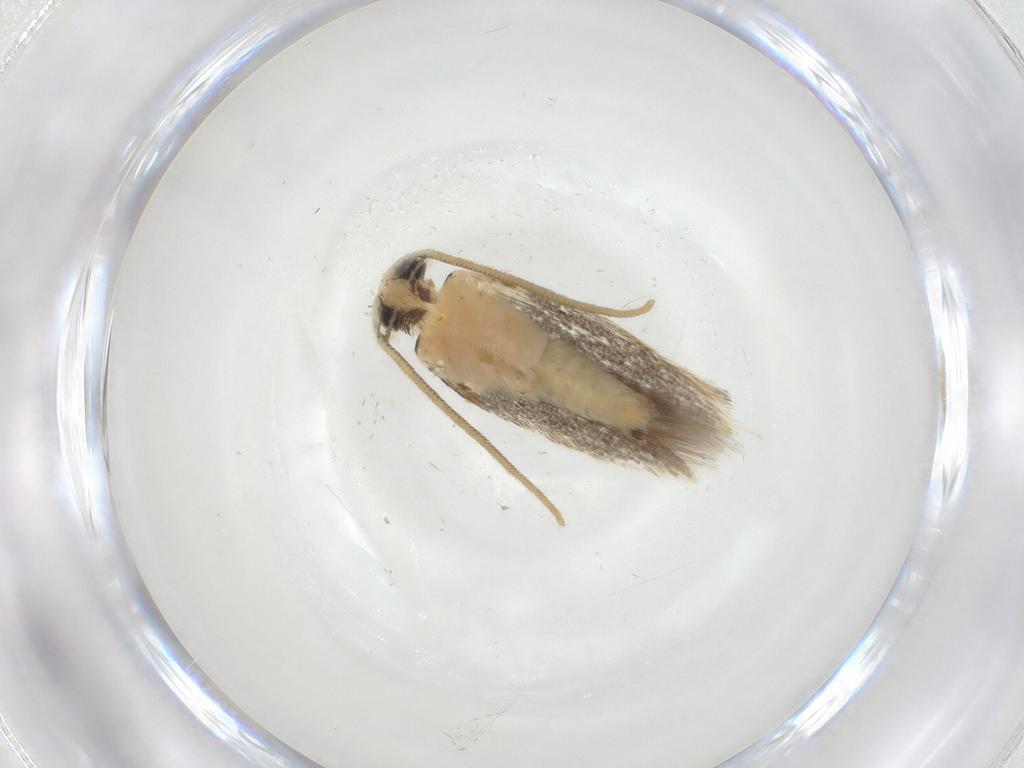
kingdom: Animalia
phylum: Arthropoda
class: Insecta
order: Lepidoptera
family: Opostegidae
